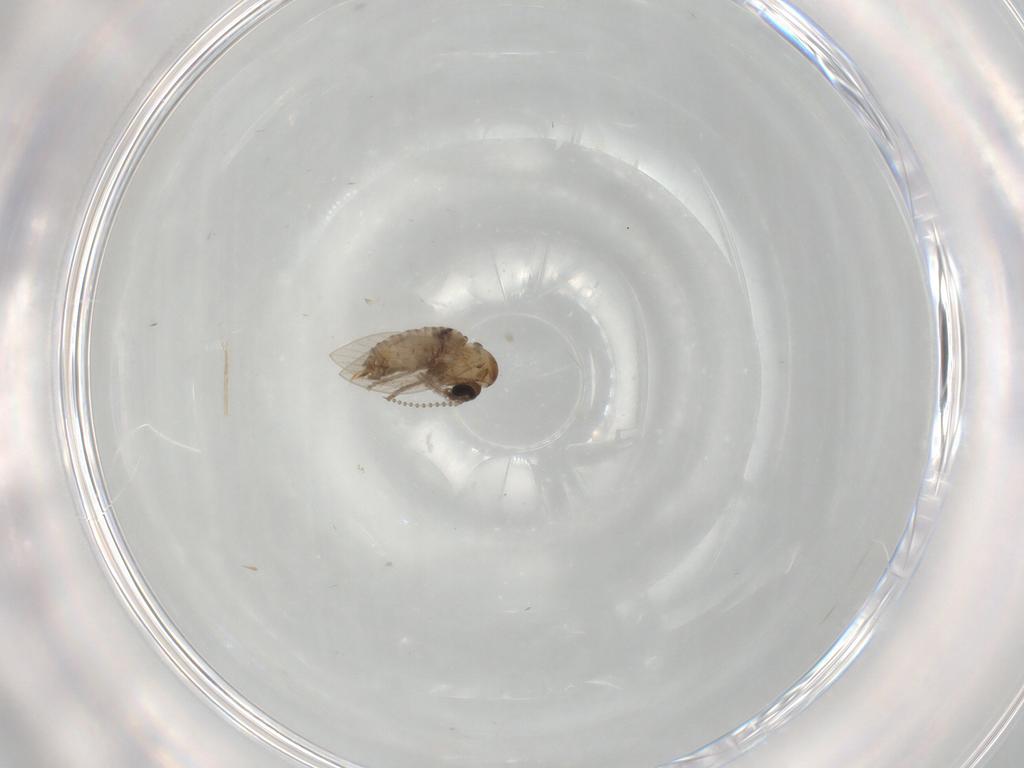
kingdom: Animalia
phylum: Arthropoda
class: Insecta
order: Diptera
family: Psychodidae
